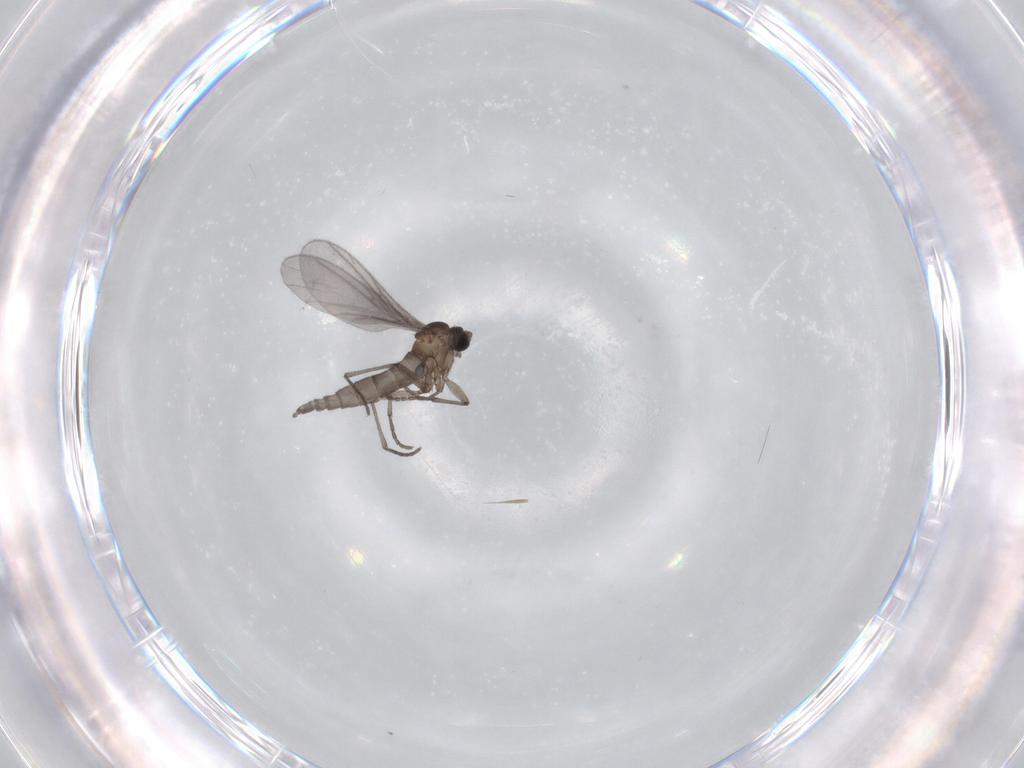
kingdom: Animalia
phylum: Arthropoda
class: Insecta
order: Diptera
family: Sciaridae
